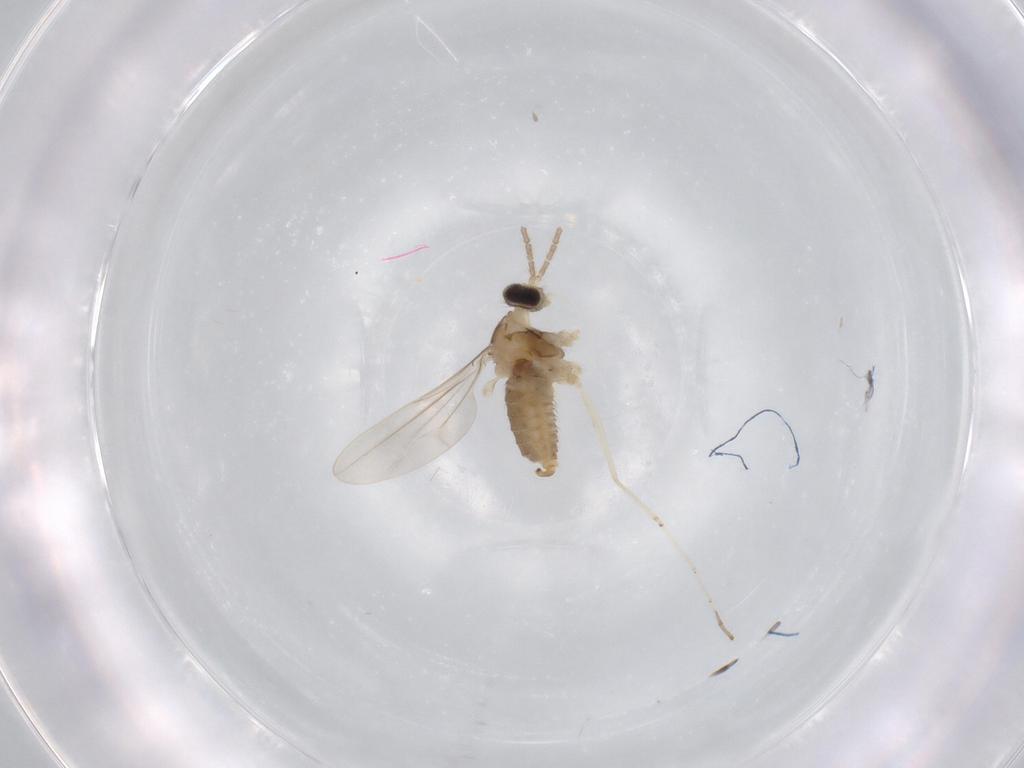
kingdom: Animalia
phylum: Arthropoda
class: Insecta
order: Diptera
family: Cecidomyiidae
